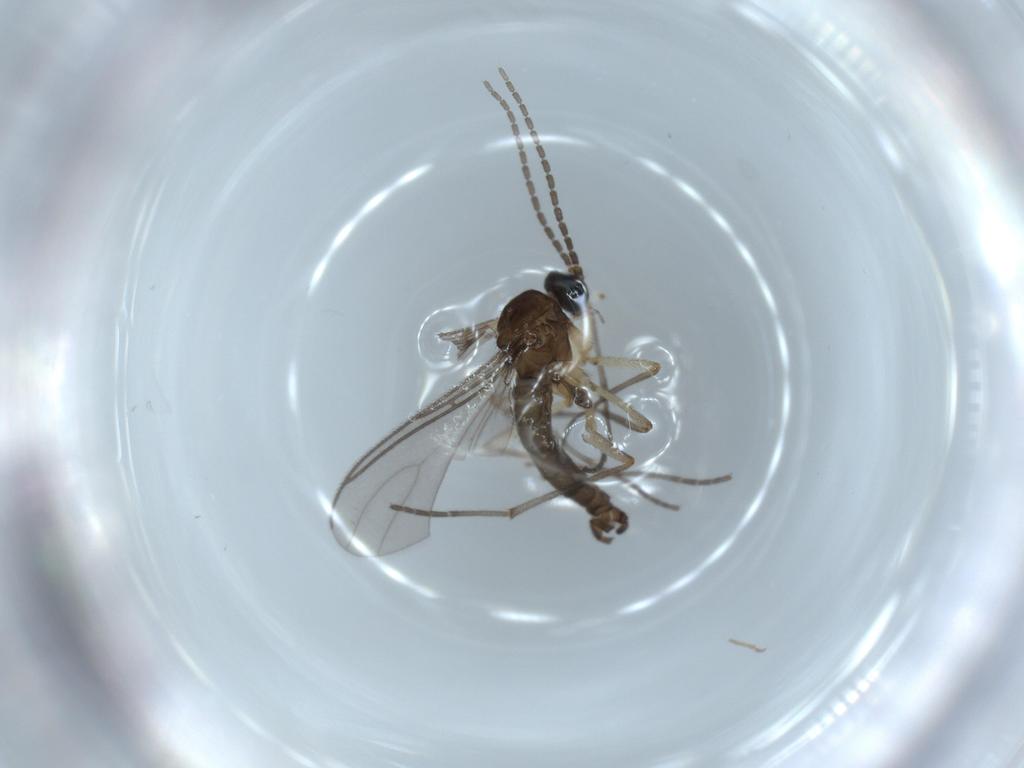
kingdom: Animalia
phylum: Arthropoda
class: Insecta
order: Diptera
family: Sciaridae
